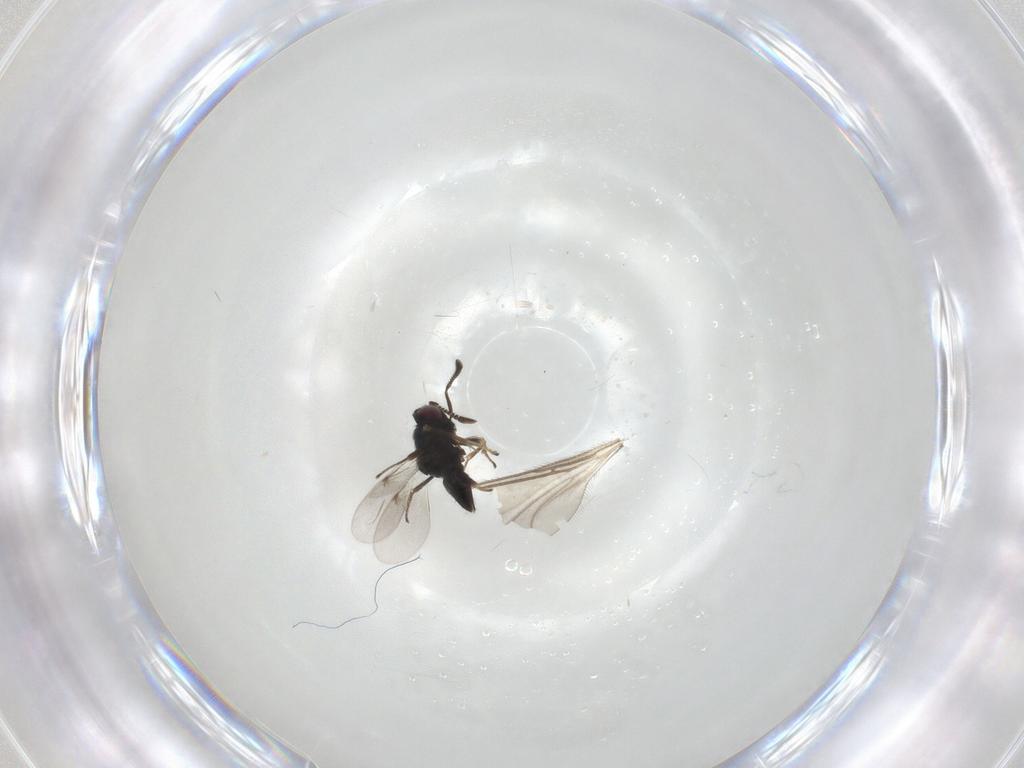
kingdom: Animalia
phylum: Arthropoda
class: Insecta
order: Hymenoptera
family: Encyrtidae
